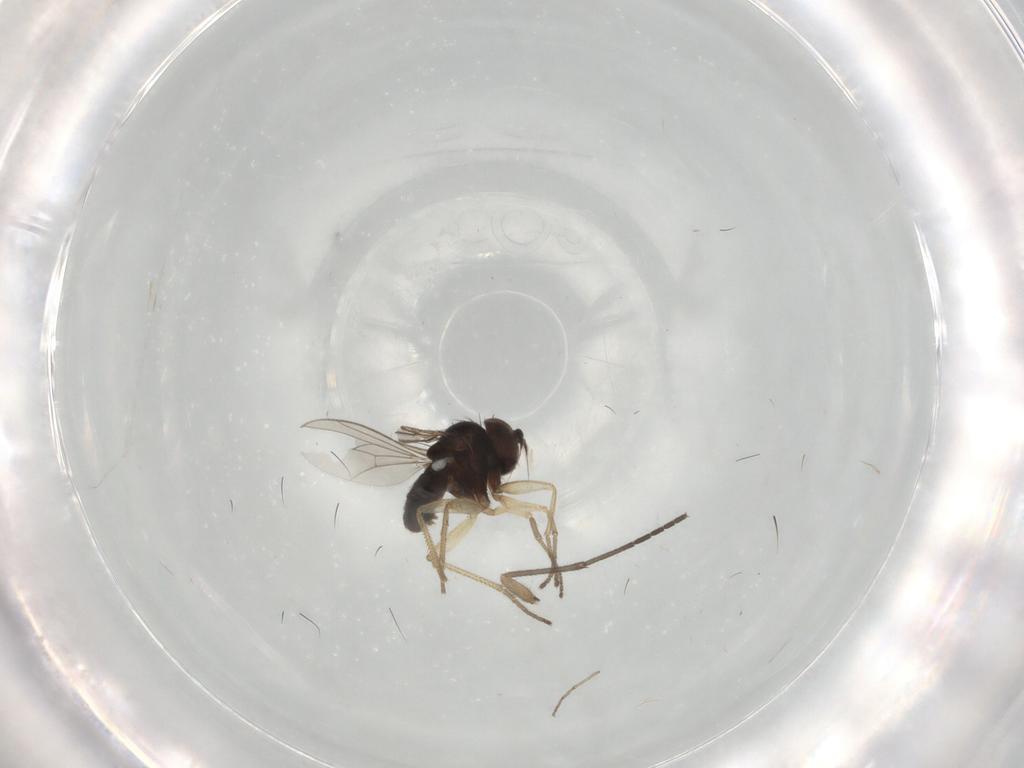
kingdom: Animalia
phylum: Arthropoda
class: Insecta
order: Diptera
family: Dolichopodidae
